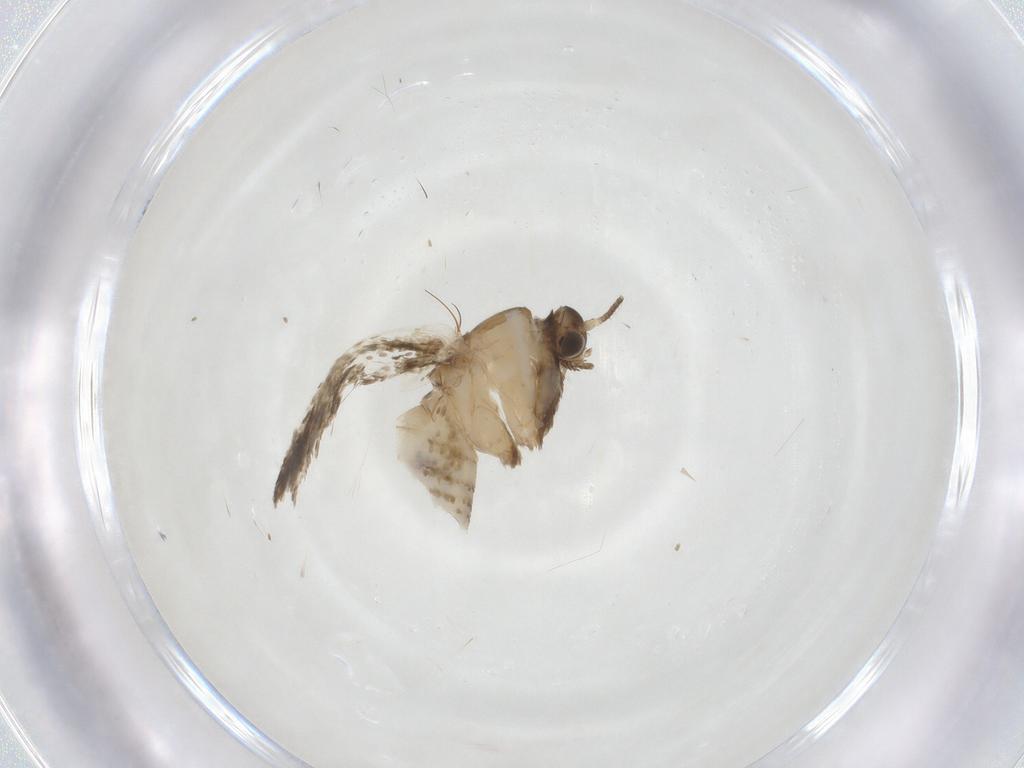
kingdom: Animalia
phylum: Arthropoda
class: Insecta
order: Lepidoptera
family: Tortricidae
